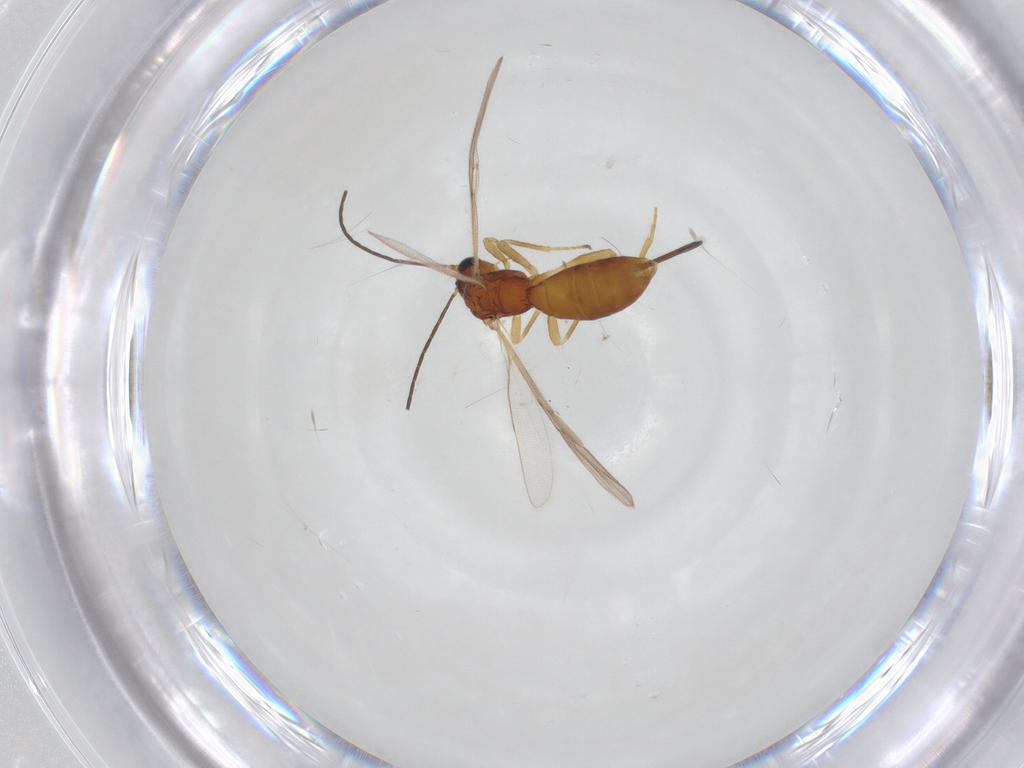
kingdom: Animalia
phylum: Arthropoda
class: Insecta
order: Hymenoptera
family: Braconidae
